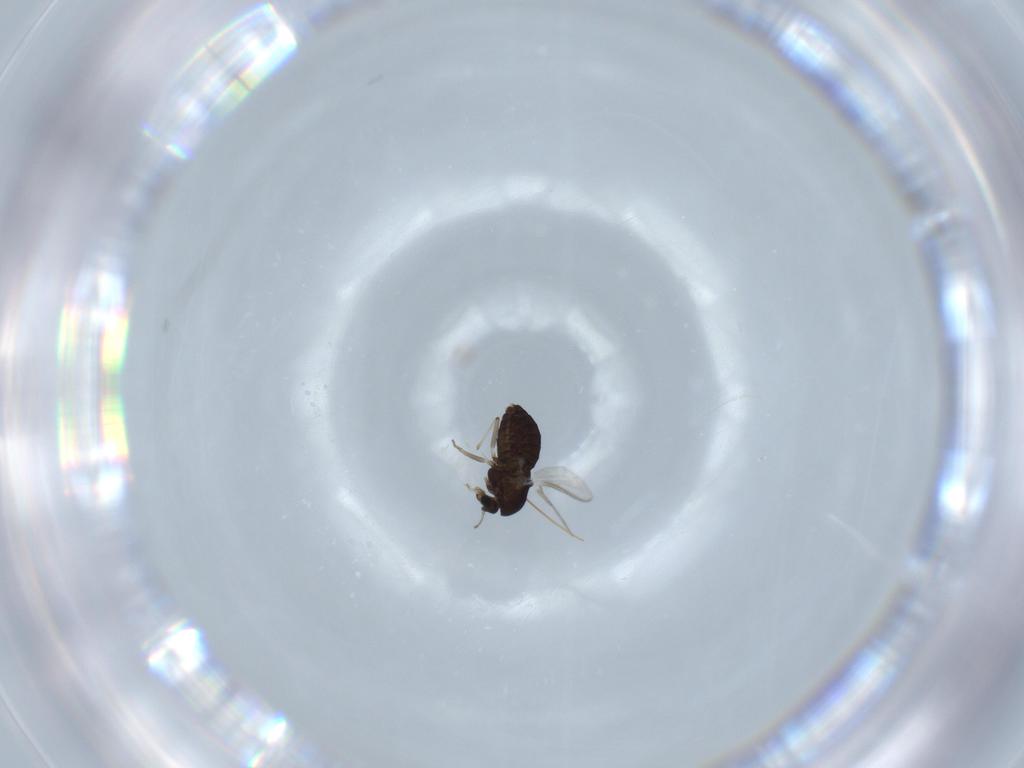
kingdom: Animalia
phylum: Arthropoda
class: Insecta
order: Diptera
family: Chironomidae
